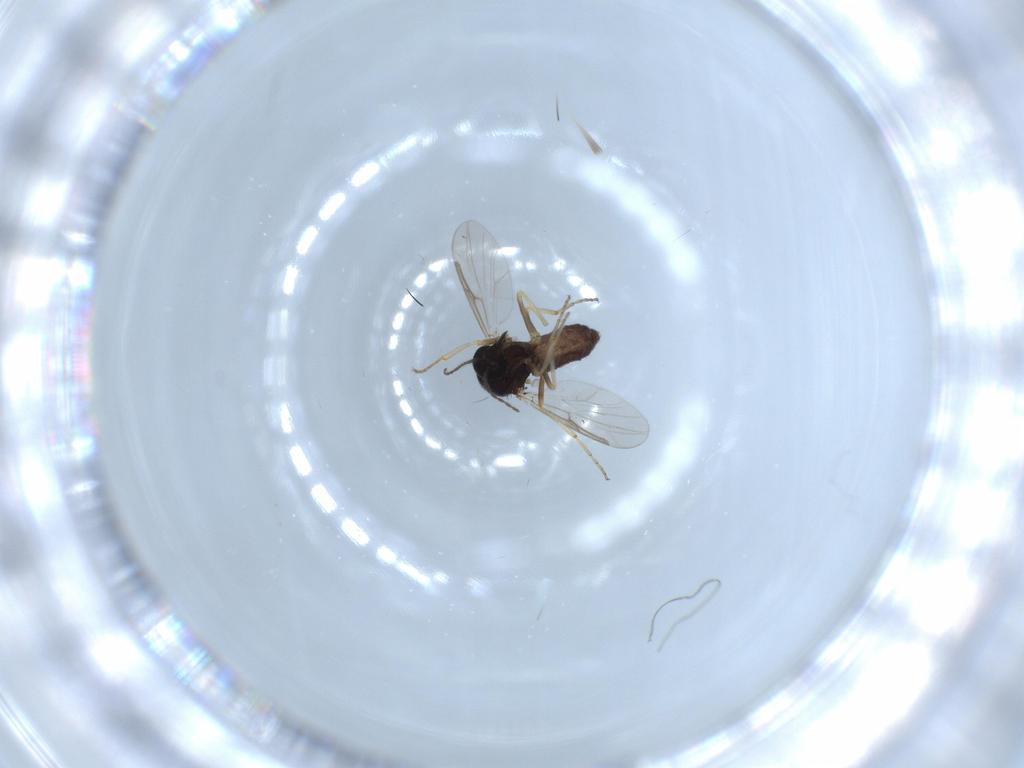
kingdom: Animalia
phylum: Arthropoda
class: Insecta
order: Diptera
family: Ceratopogonidae
